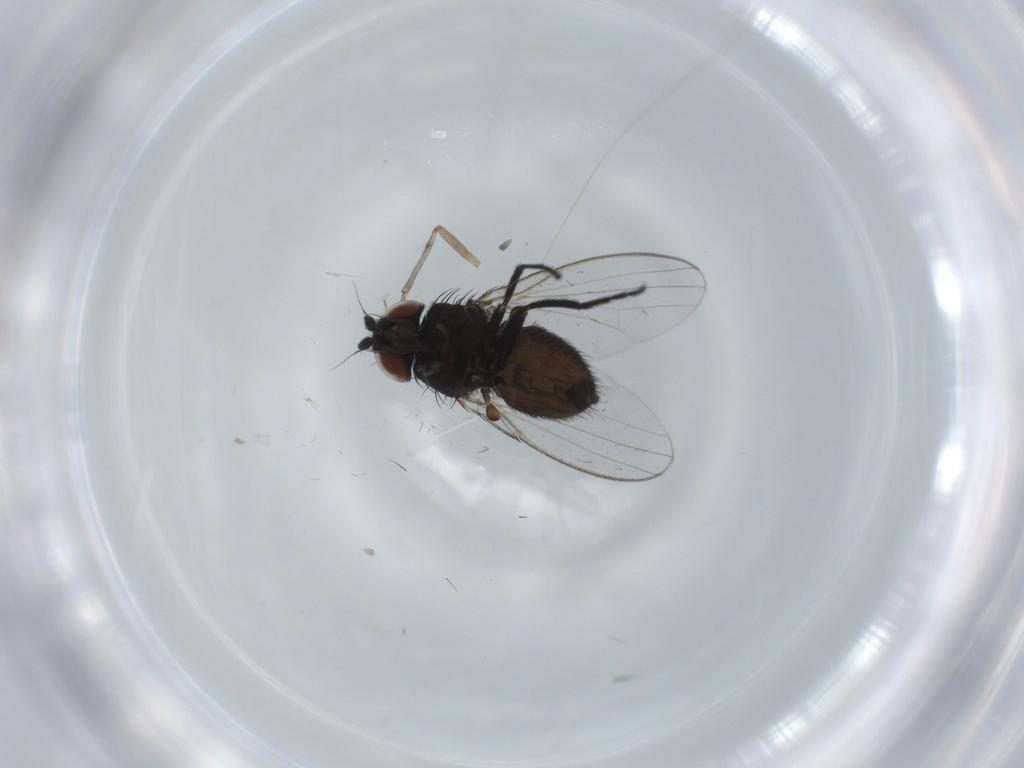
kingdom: Animalia
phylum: Arthropoda
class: Insecta
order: Diptera
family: Milichiidae
